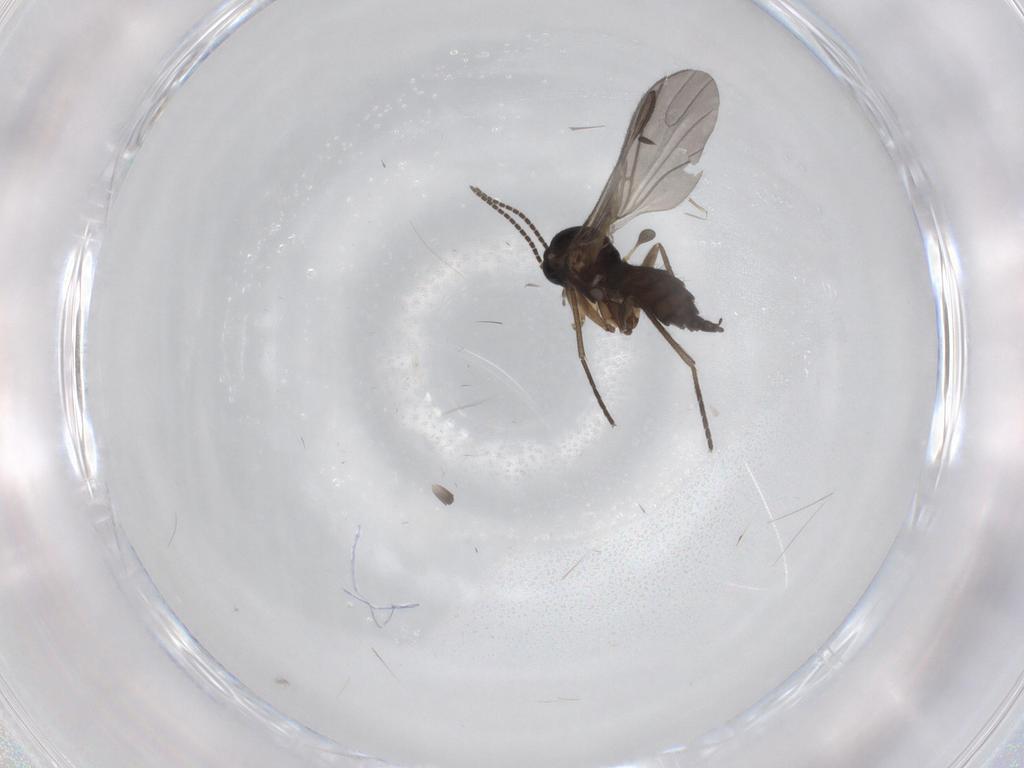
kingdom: Animalia
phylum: Arthropoda
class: Insecta
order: Diptera
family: Sciaridae
